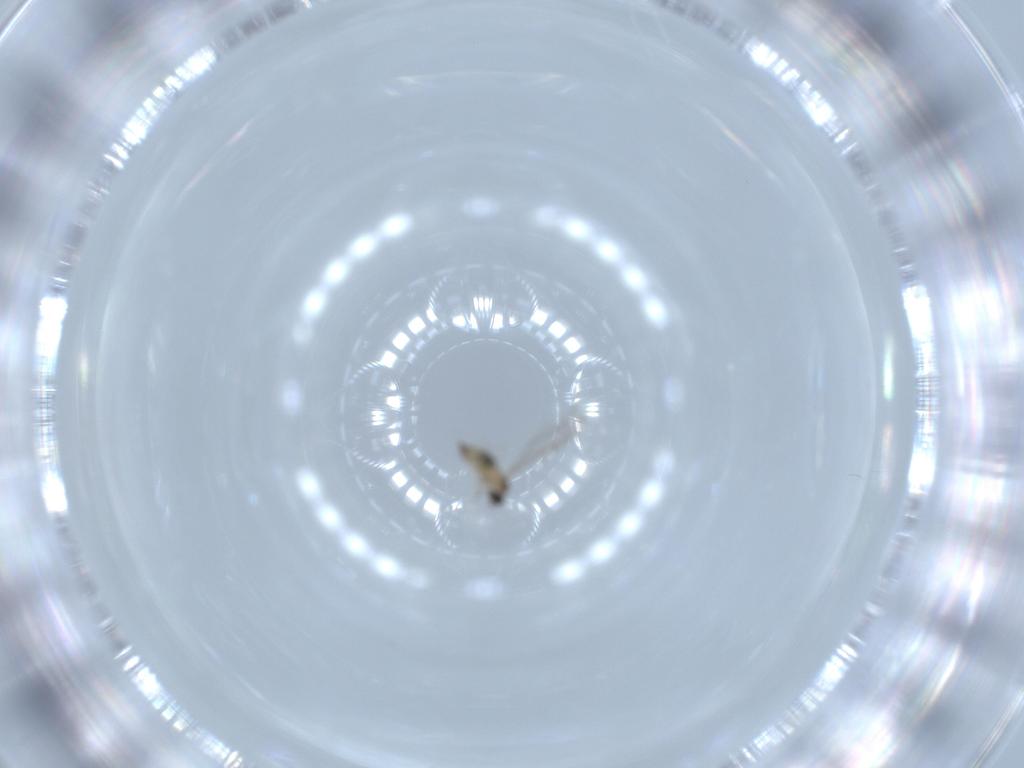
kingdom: Animalia
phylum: Arthropoda
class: Insecta
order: Diptera
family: Cecidomyiidae
